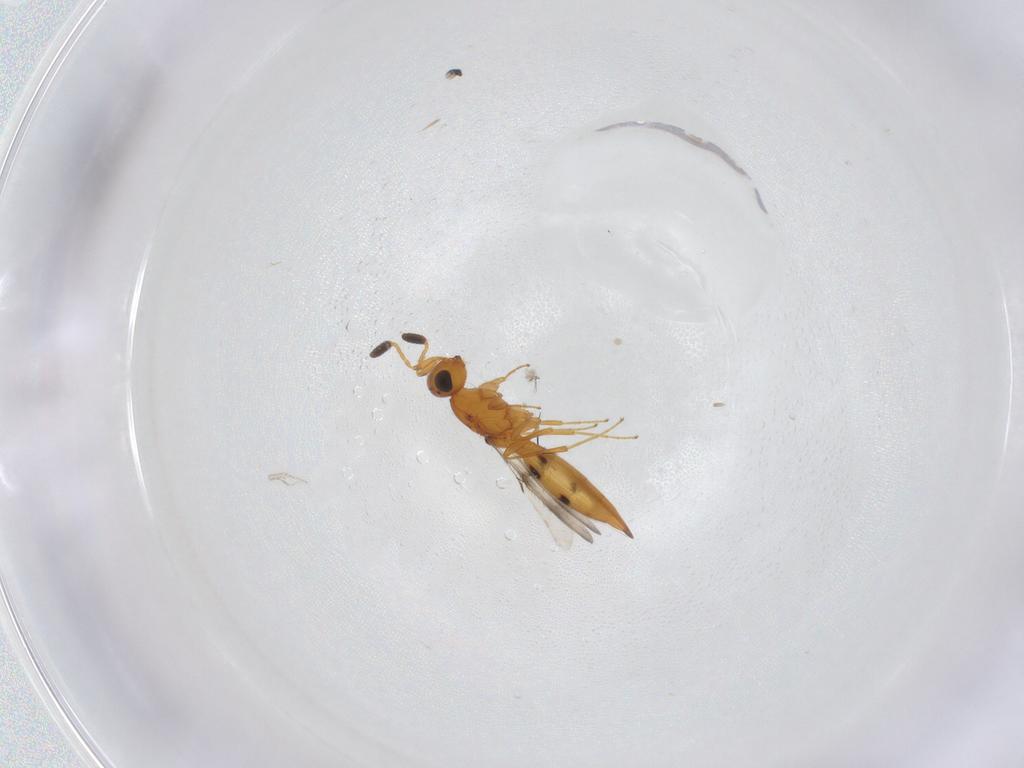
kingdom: Animalia
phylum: Arthropoda
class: Insecta
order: Hymenoptera
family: Scelionidae
